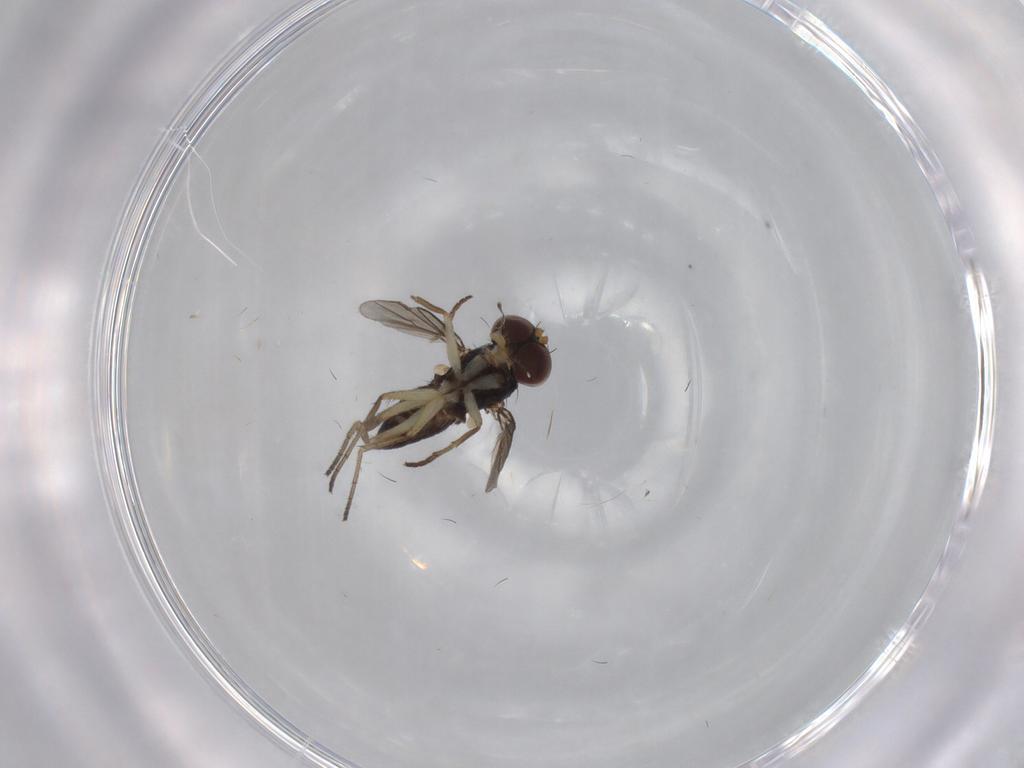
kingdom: Animalia
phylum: Arthropoda
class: Insecta
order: Diptera
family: Dolichopodidae
